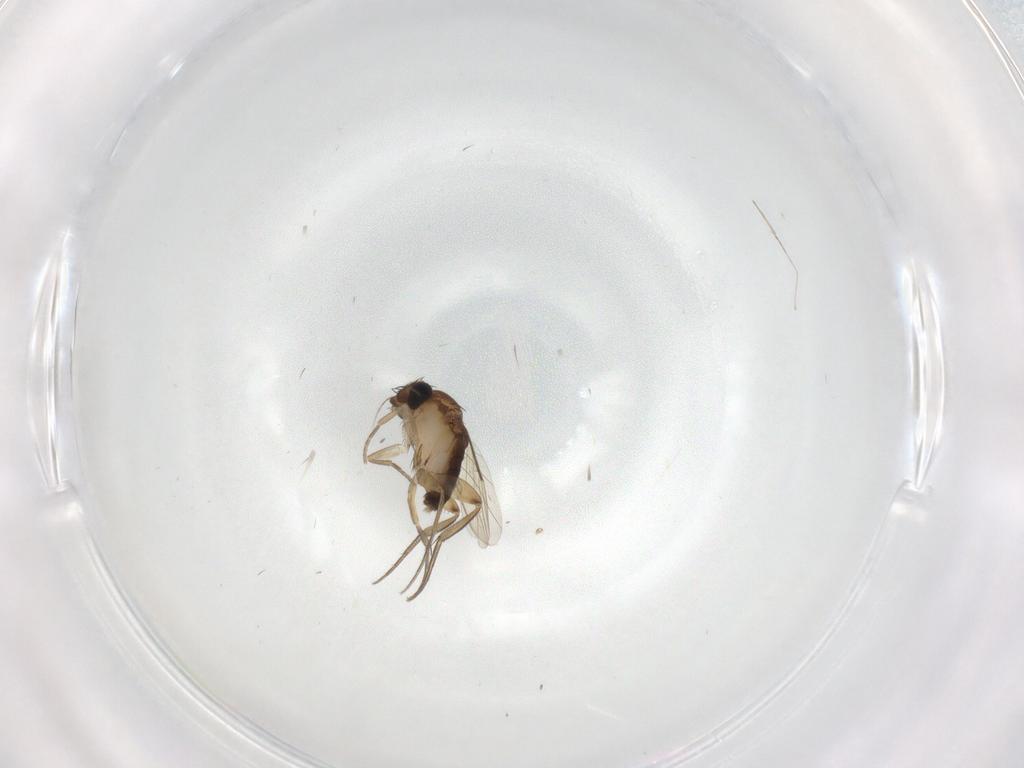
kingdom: Animalia
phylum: Arthropoda
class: Insecta
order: Diptera
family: Phoridae
